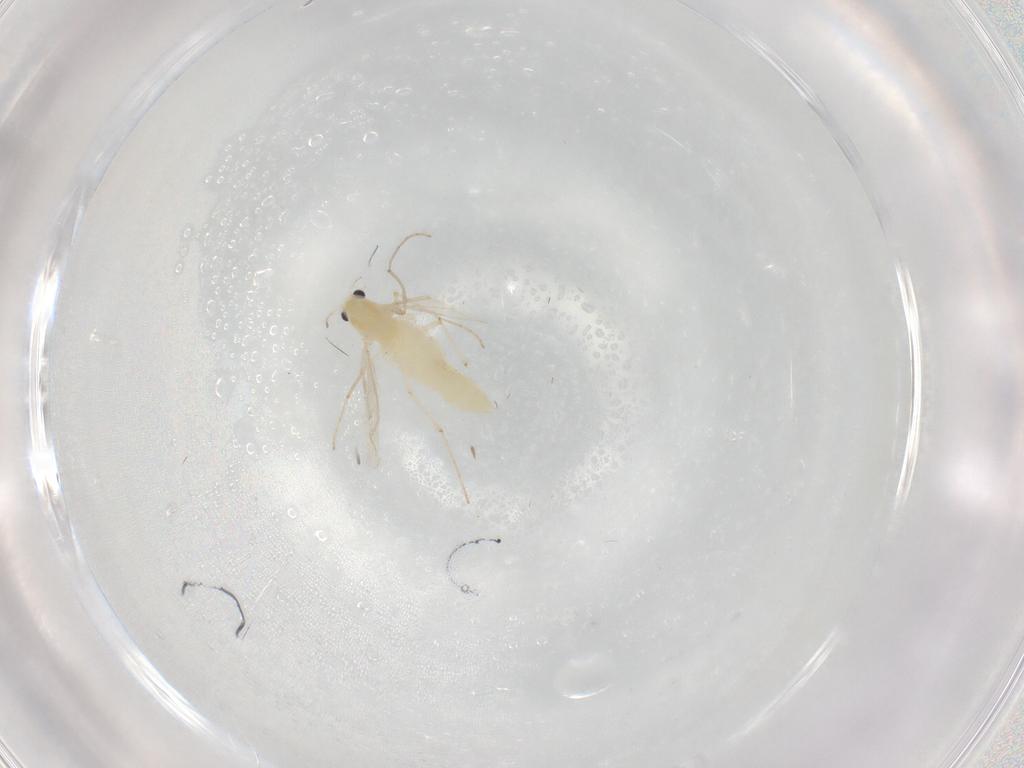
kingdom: Animalia
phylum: Arthropoda
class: Insecta
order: Diptera
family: Chironomidae
